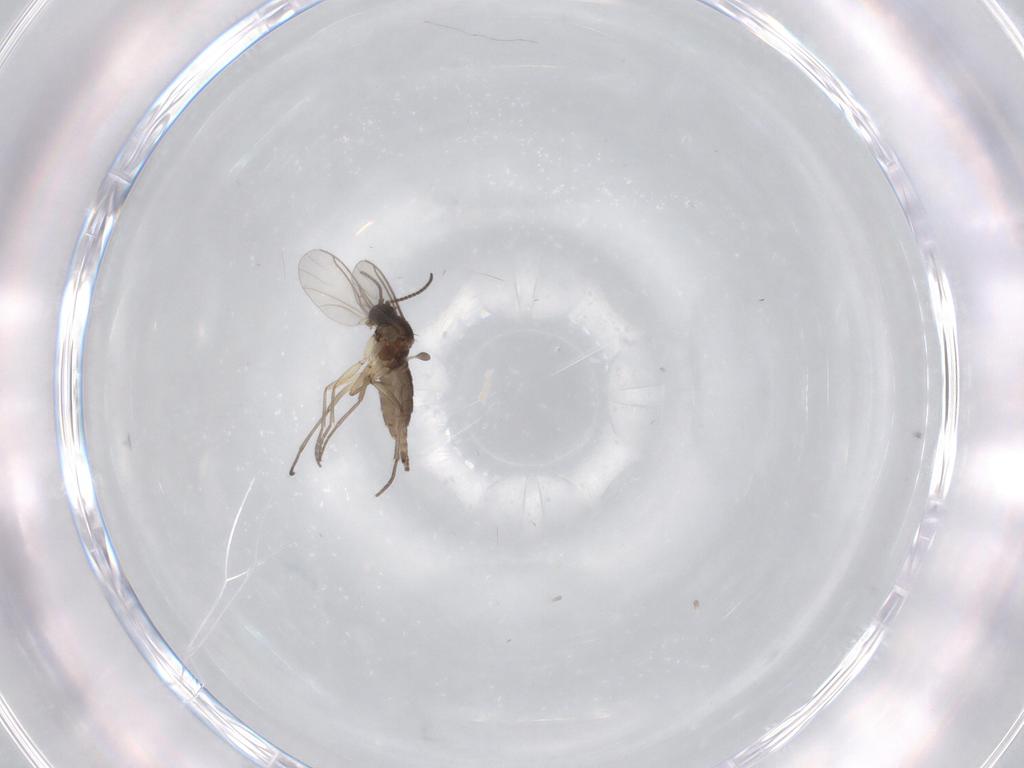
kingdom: Animalia
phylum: Arthropoda
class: Insecta
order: Diptera
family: Sciaridae
